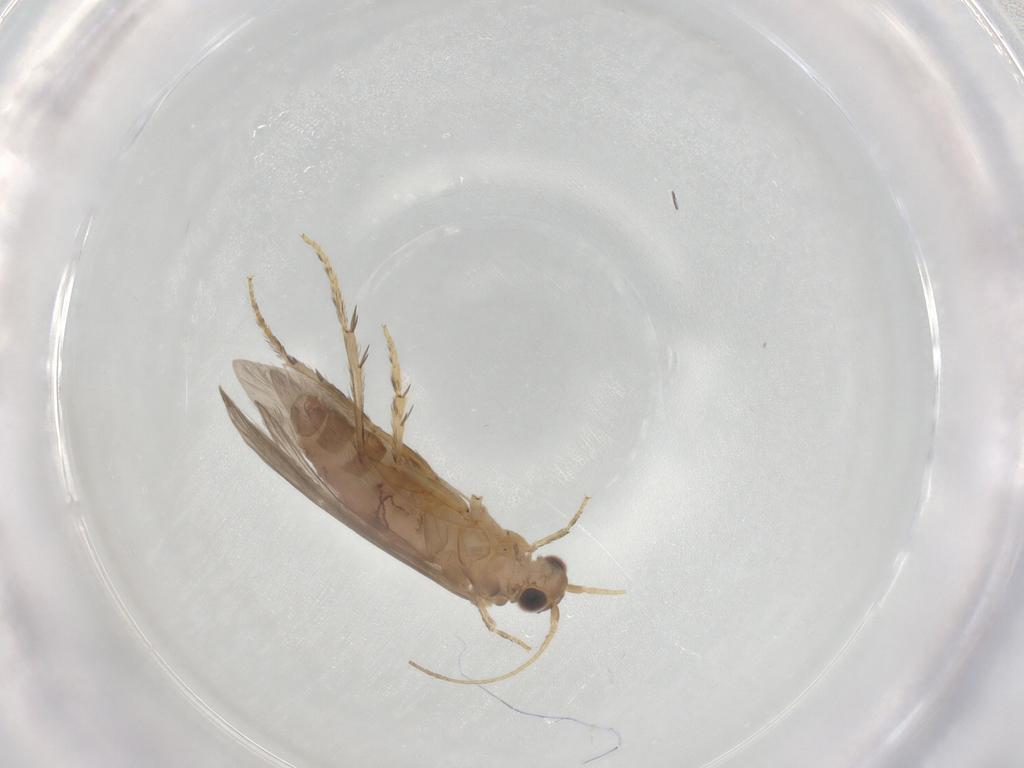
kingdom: Animalia
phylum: Arthropoda
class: Insecta
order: Trichoptera
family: Glossosomatidae
